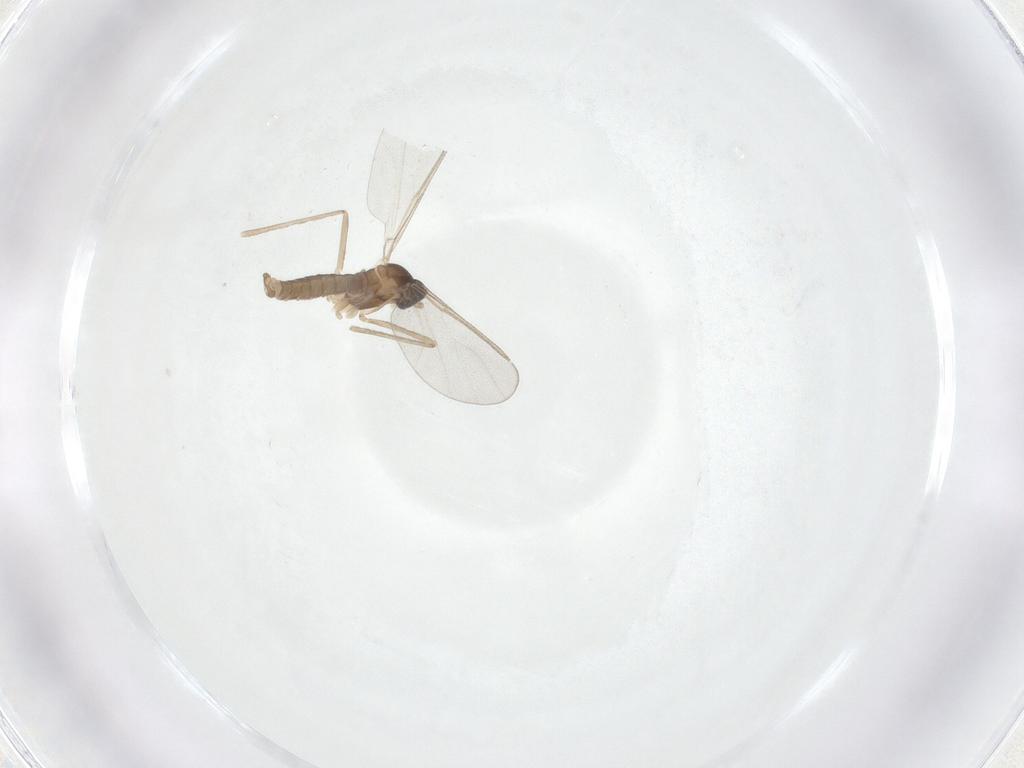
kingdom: Animalia
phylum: Arthropoda
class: Insecta
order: Diptera
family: Cecidomyiidae
